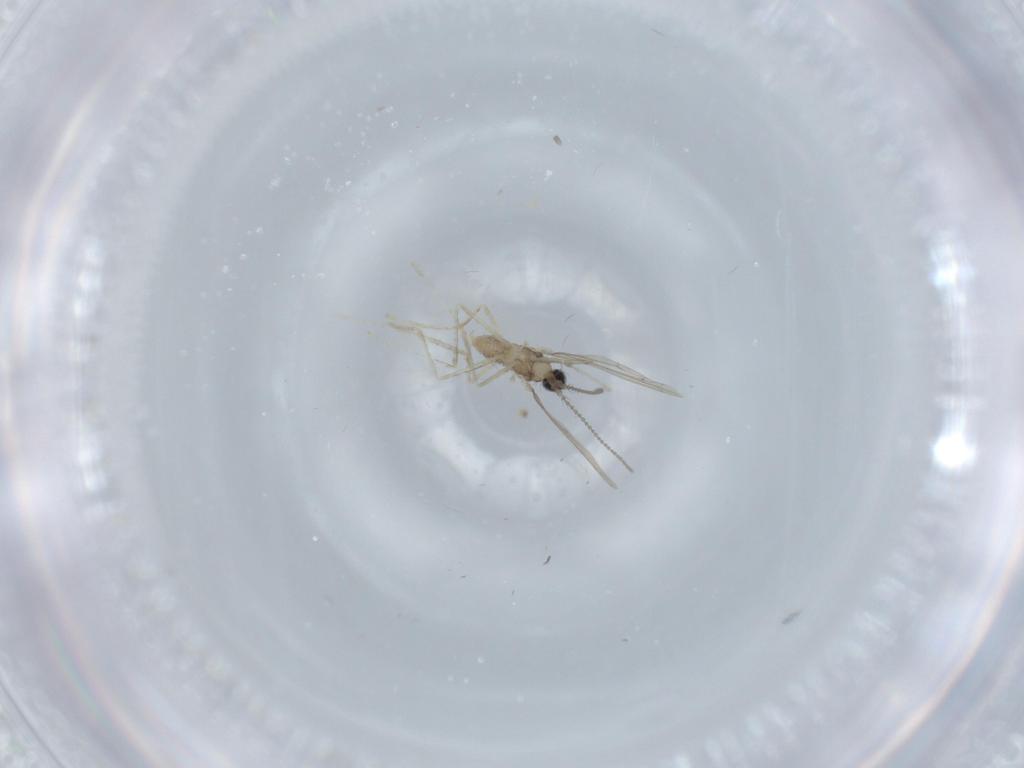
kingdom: Animalia
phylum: Arthropoda
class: Insecta
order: Diptera
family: Cecidomyiidae
